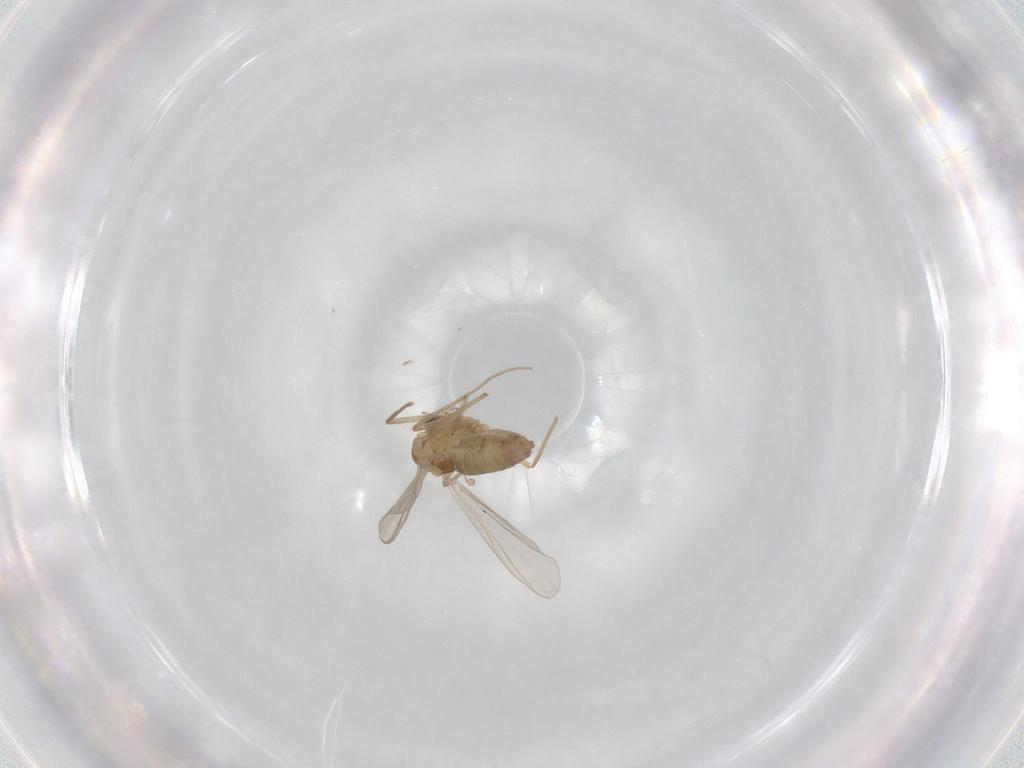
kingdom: Animalia
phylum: Arthropoda
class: Insecta
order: Diptera
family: Chironomidae
